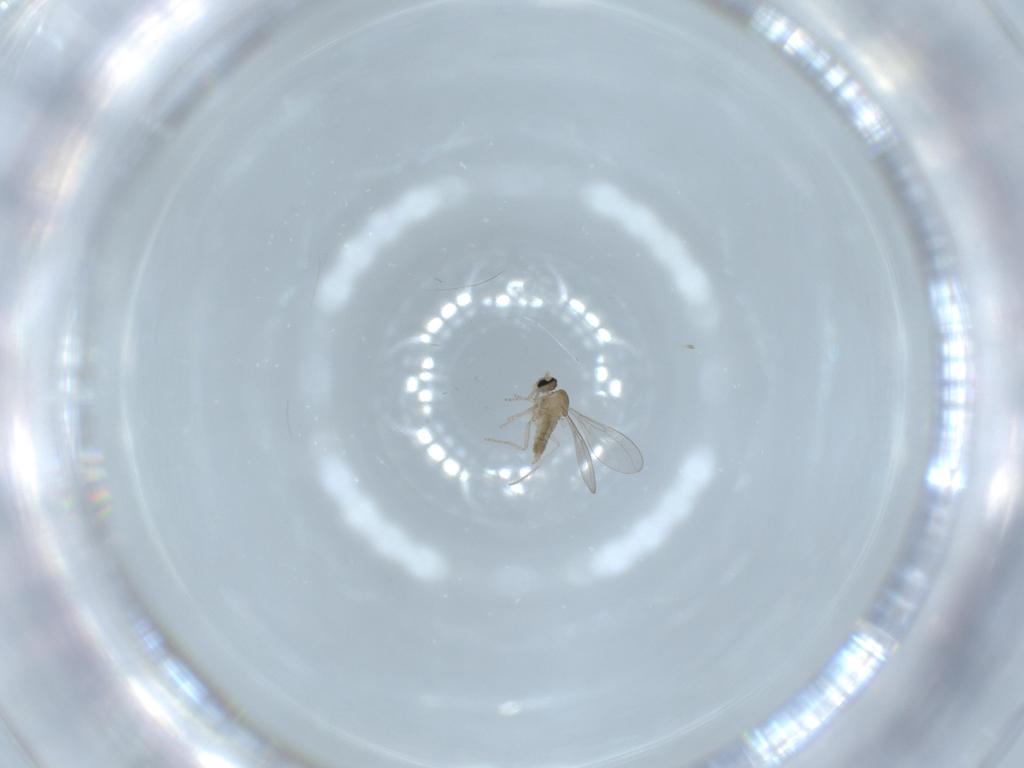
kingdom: Animalia
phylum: Arthropoda
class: Insecta
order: Diptera
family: Cecidomyiidae
